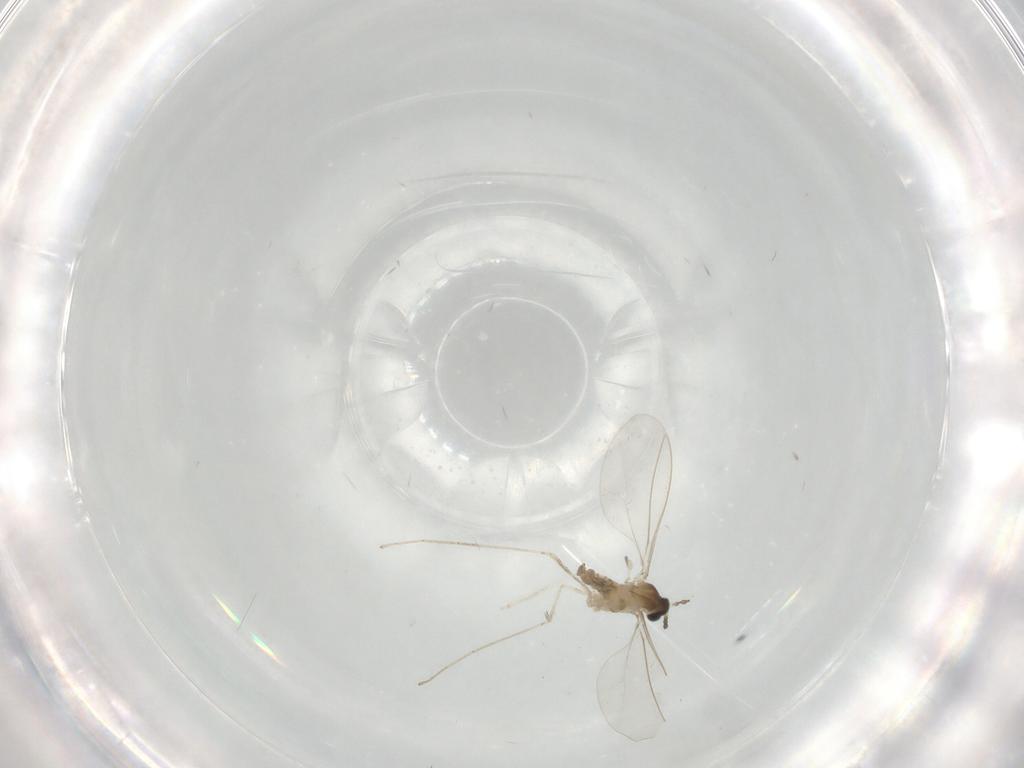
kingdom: Animalia
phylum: Arthropoda
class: Insecta
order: Diptera
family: Cecidomyiidae
